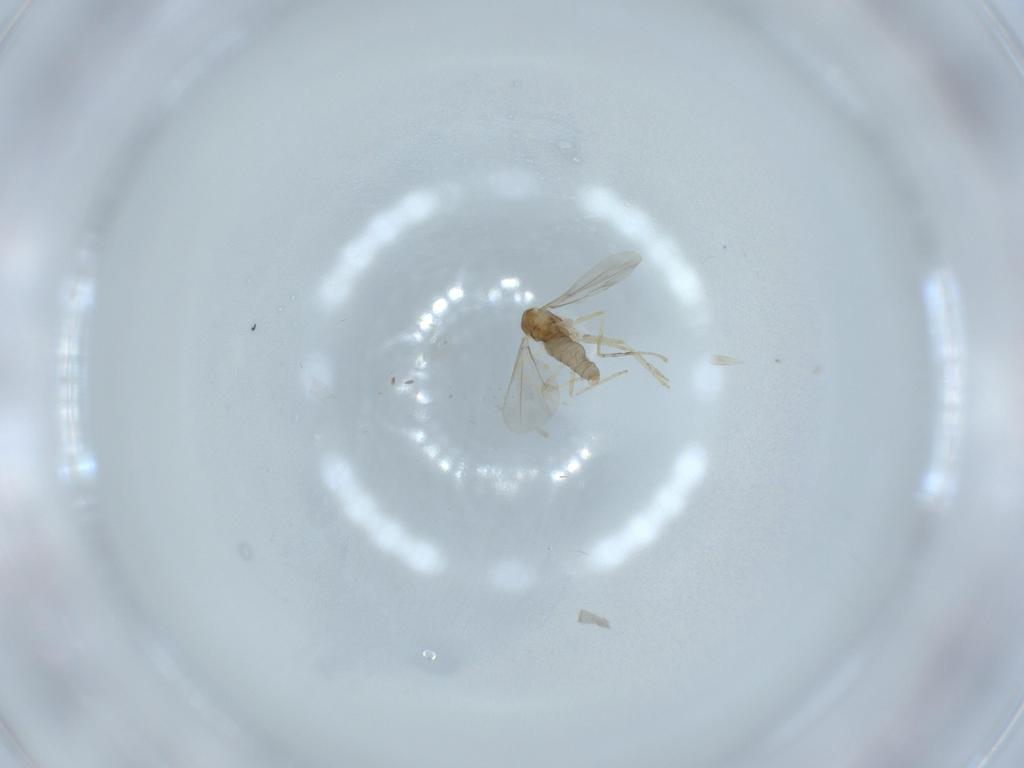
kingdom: Animalia
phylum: Arthropoda
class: Insecta
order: Diptera
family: Cecidomyiidae
